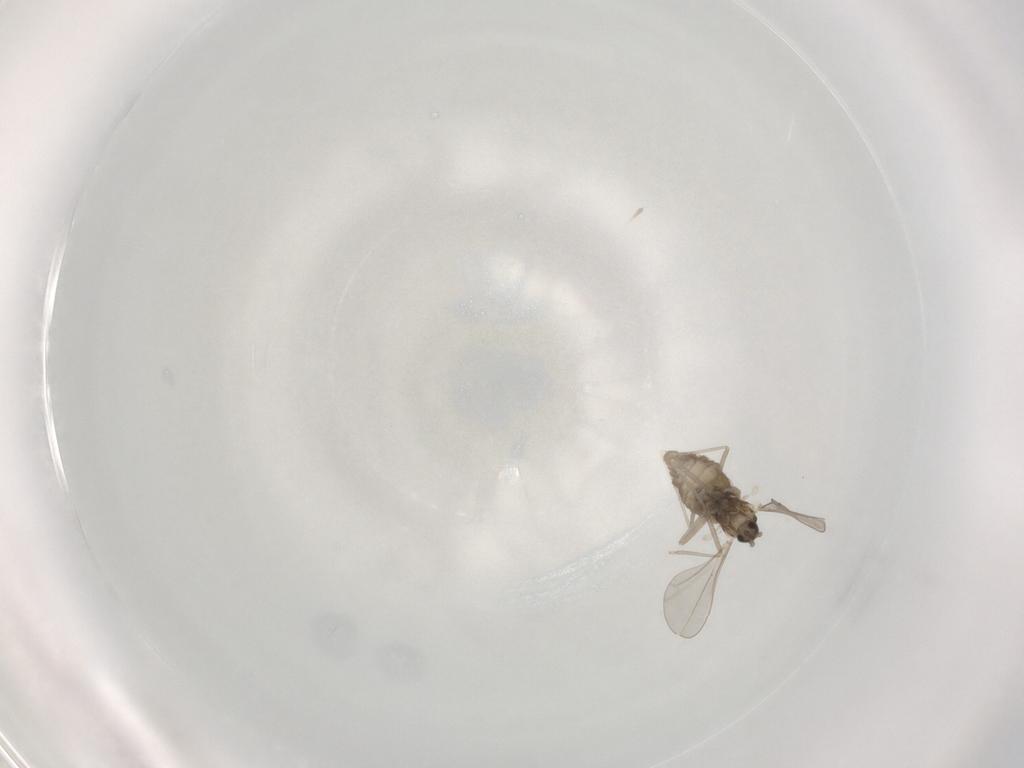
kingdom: Animalia
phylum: Arthropoda
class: Insecta
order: Diptera
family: Cecidomyiidae
